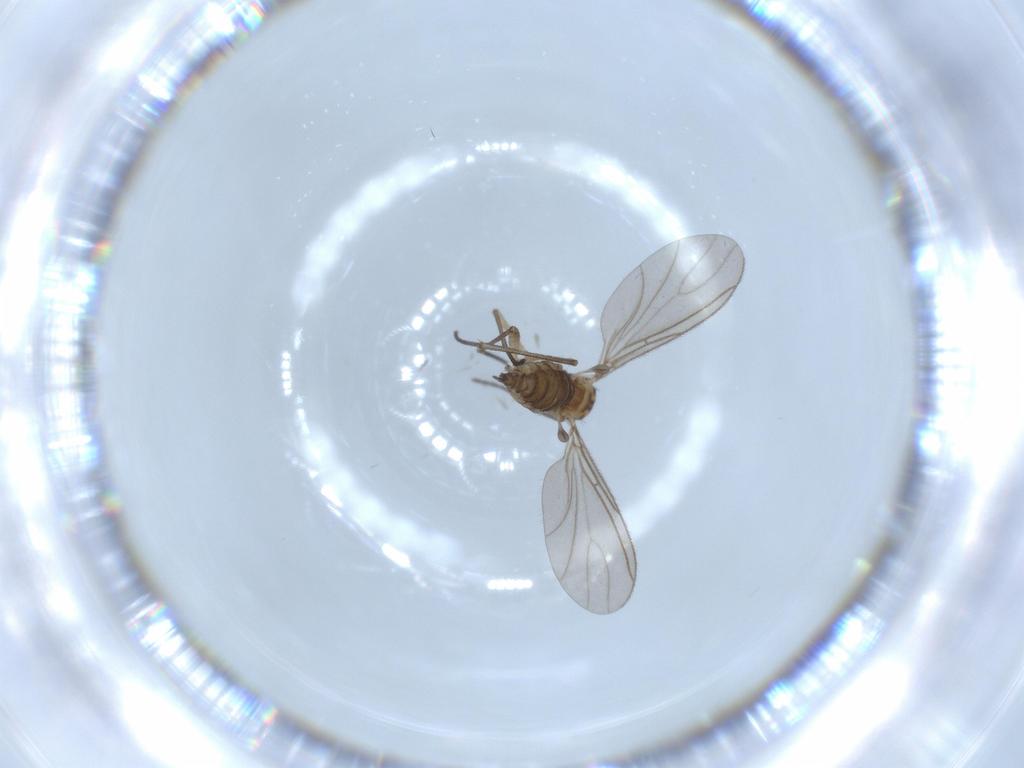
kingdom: Animalia
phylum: Arthropoda
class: Insecta
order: Diptera
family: Sciaridae
